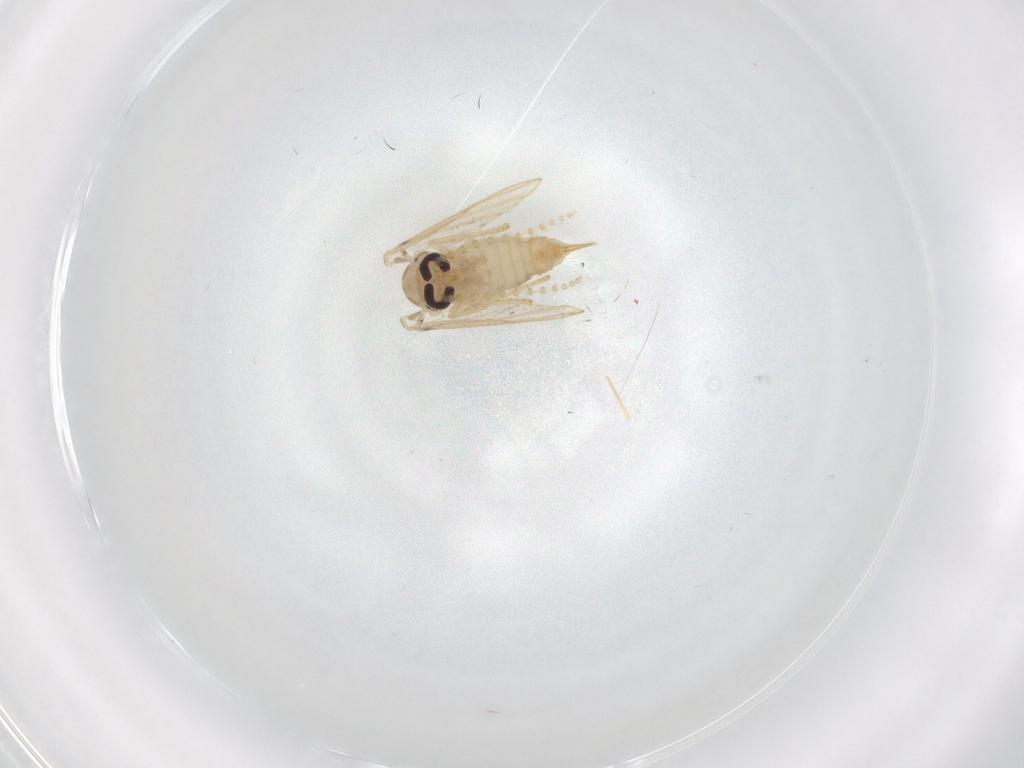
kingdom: Animalia
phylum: Arthropoda
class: Insecta
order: Diptera
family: Psychodidae
